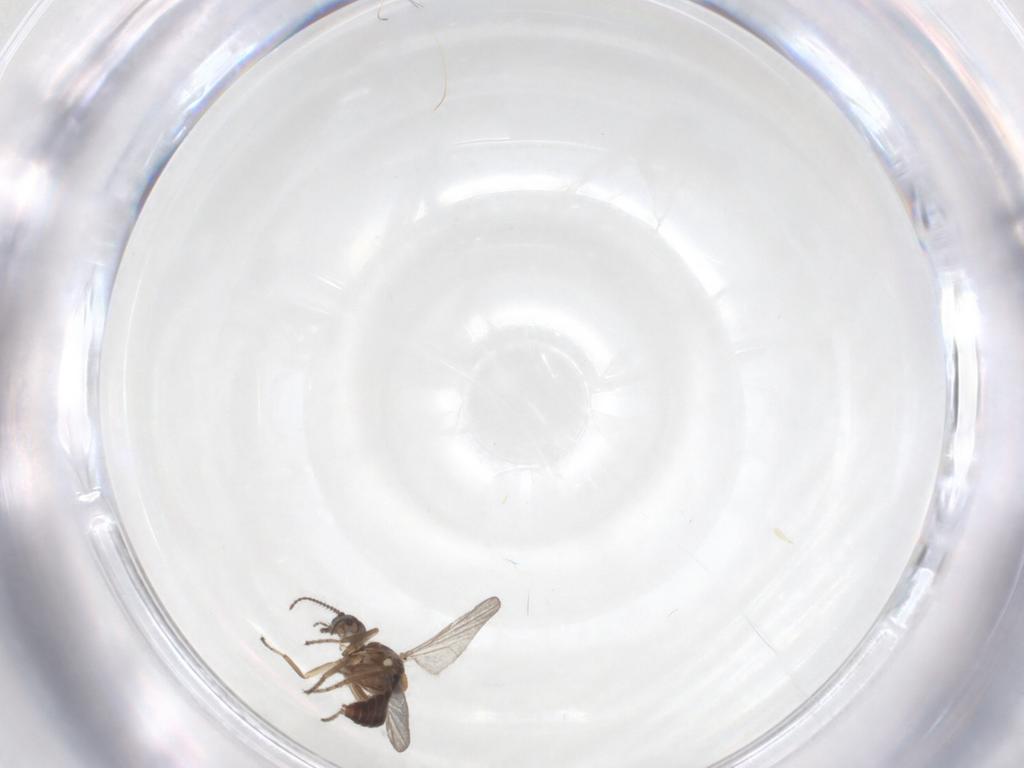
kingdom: Animalia
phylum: Arthropoda
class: Insecta
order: Diptera
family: Ceratopogonidae
